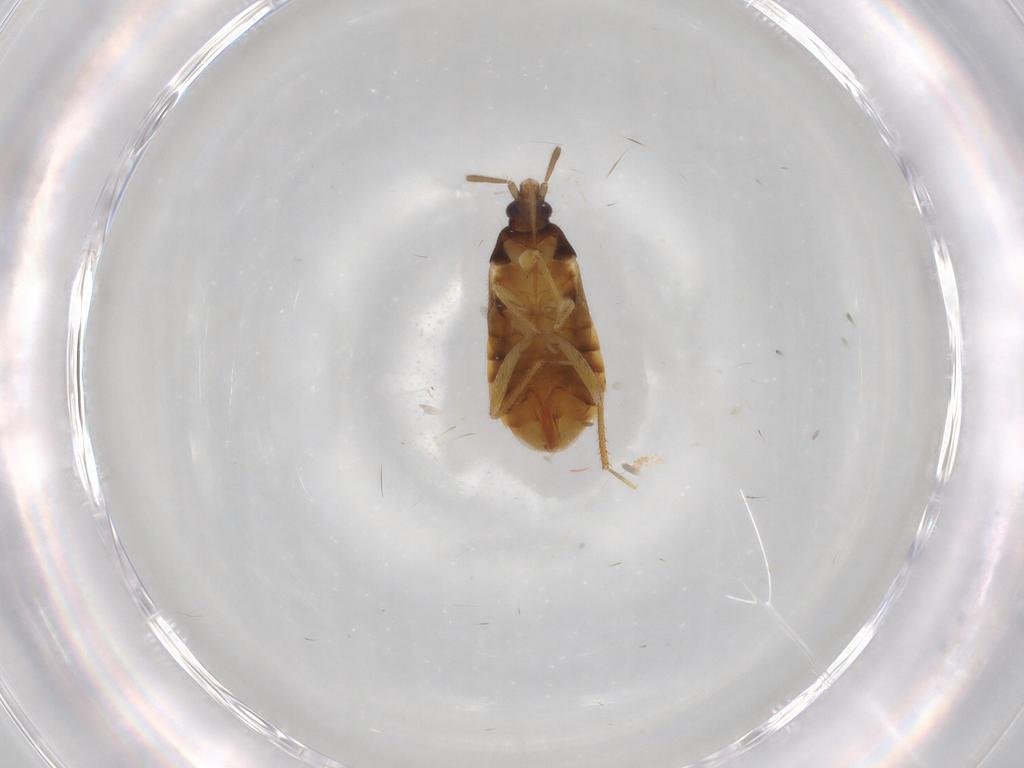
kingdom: Animalia
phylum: Arthropoda
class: Insecta
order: Hemiptera
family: Lasiochilidae
